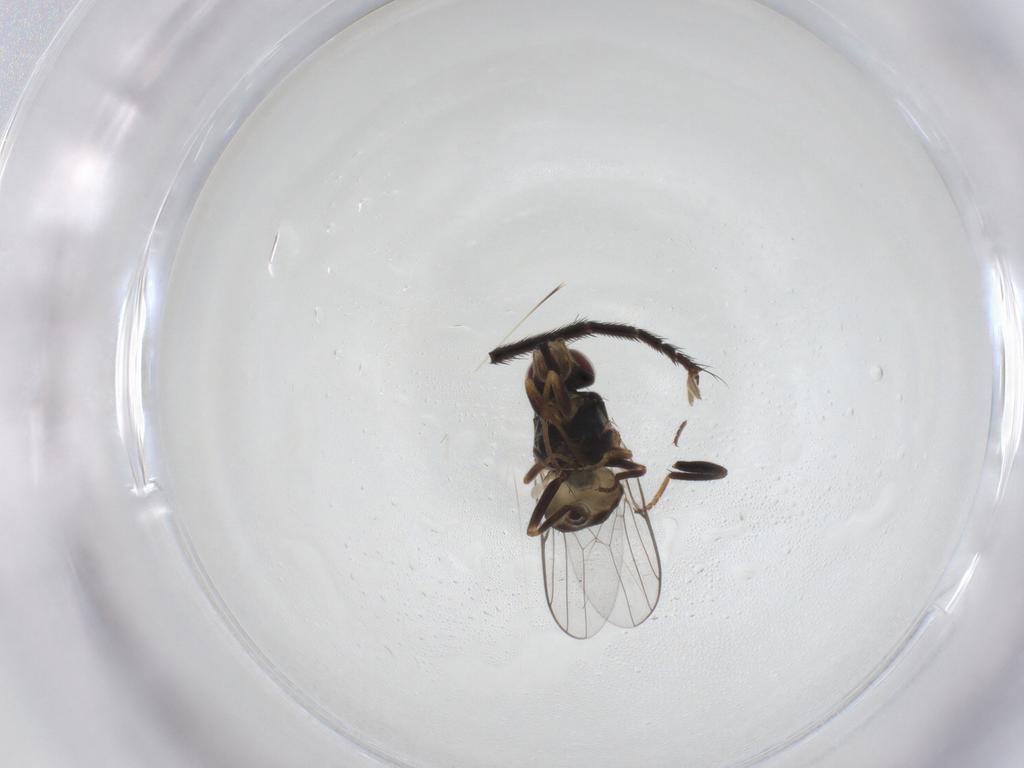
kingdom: Animalia
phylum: Arthropoda
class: Insecta
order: Diptera
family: Chloropidae
